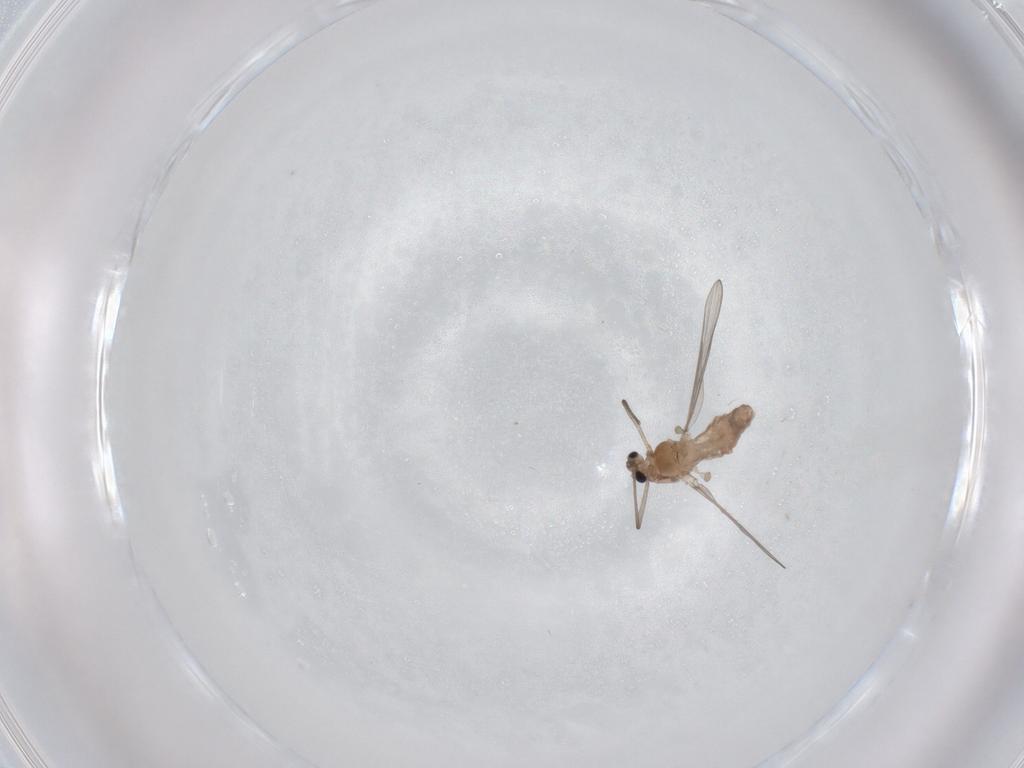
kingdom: Animalia
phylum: Arthropoda
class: Insecta
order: Diptera
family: Chironomidae
